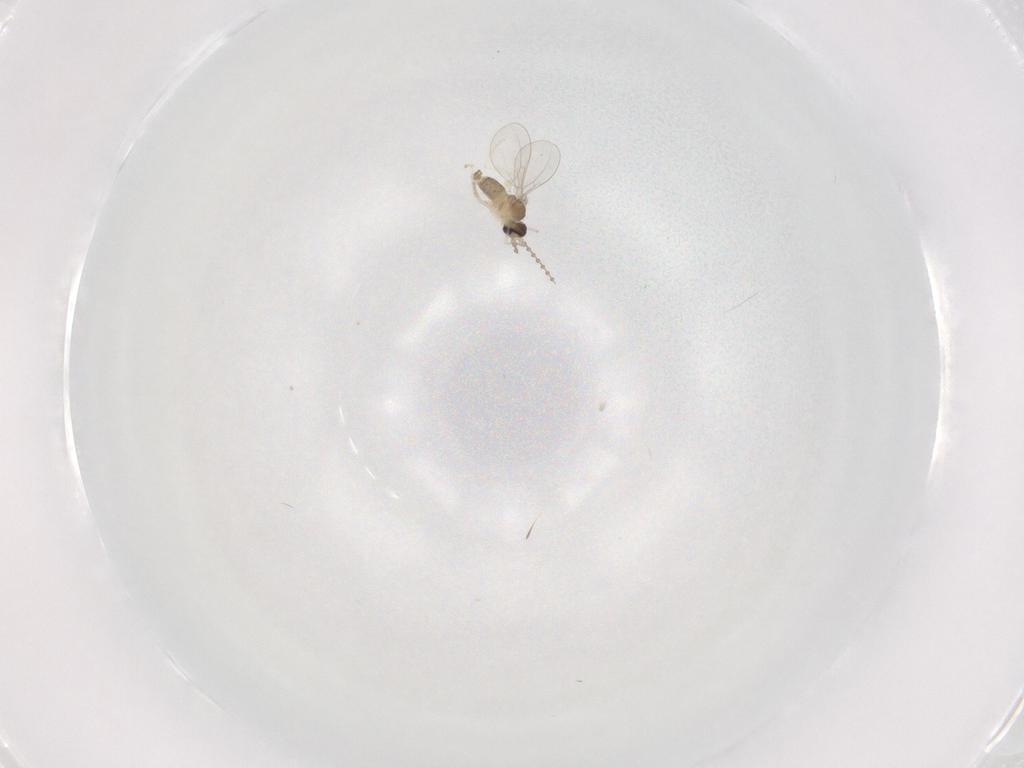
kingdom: Animalia
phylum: Arthropoda
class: Insecta
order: Diptera
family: Cecidomyiidae
